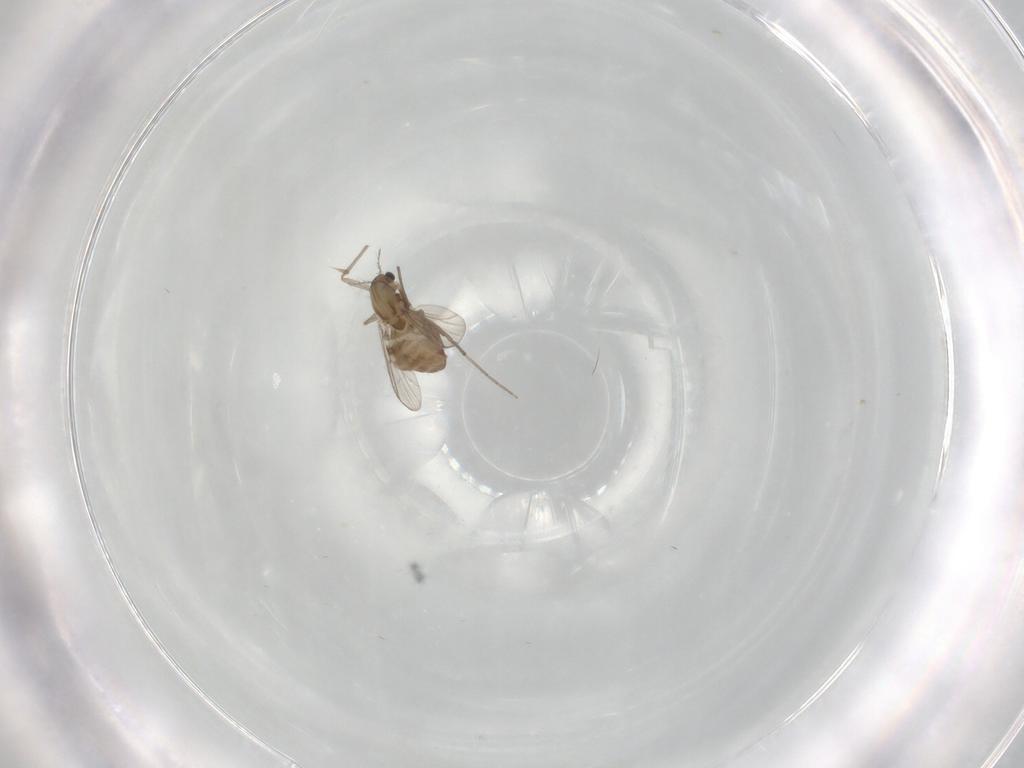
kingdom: Animalia
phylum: Arthropoda
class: Insecta
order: Diptera
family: Chironomidae
